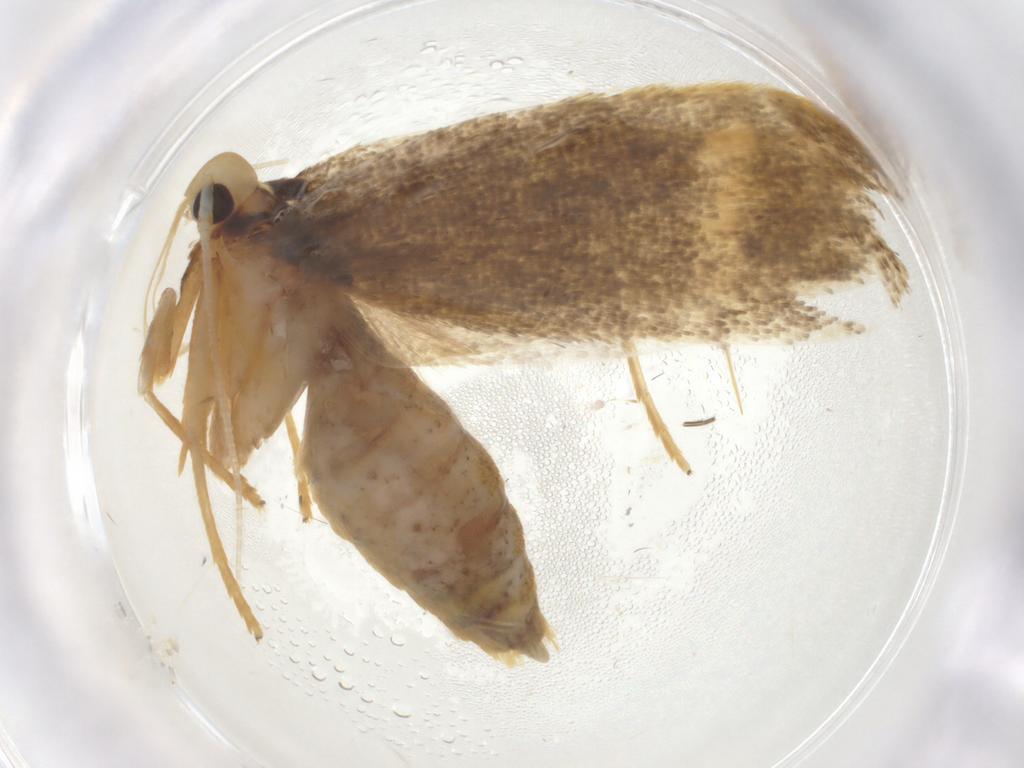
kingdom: Animalia
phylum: Arthropoda
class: Insecta
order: Lepidoptera
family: Lecithoceridae
